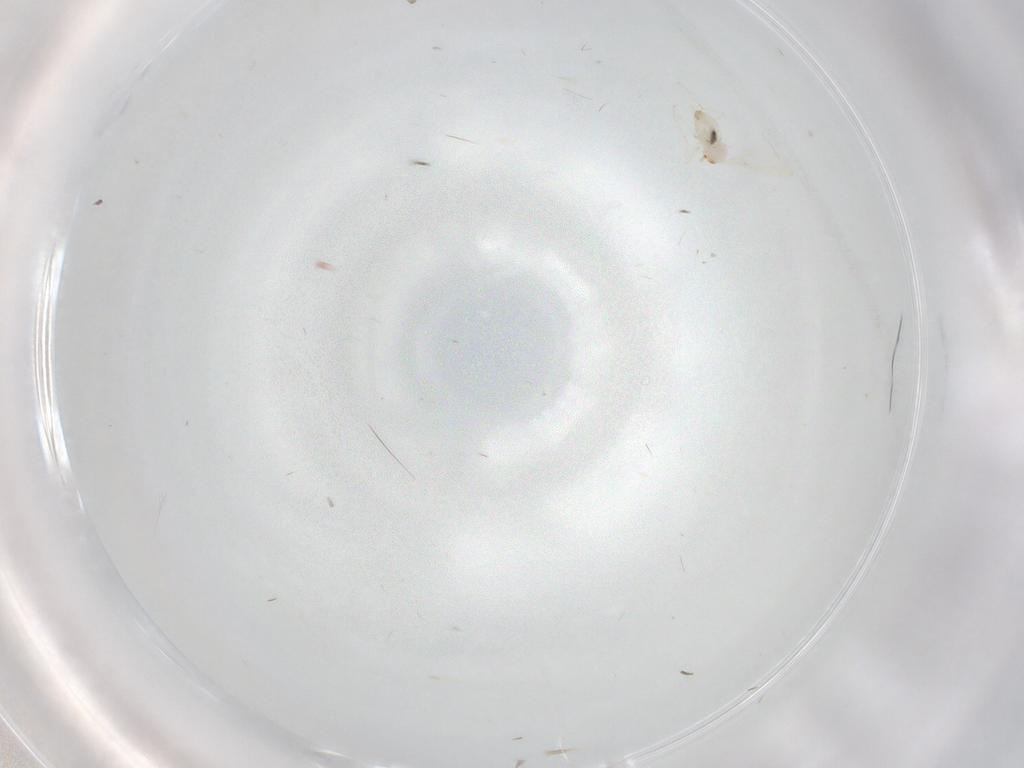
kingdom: Animalia
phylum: Arthropoda
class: Insecta
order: Diptera
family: Cecidomyiidae
